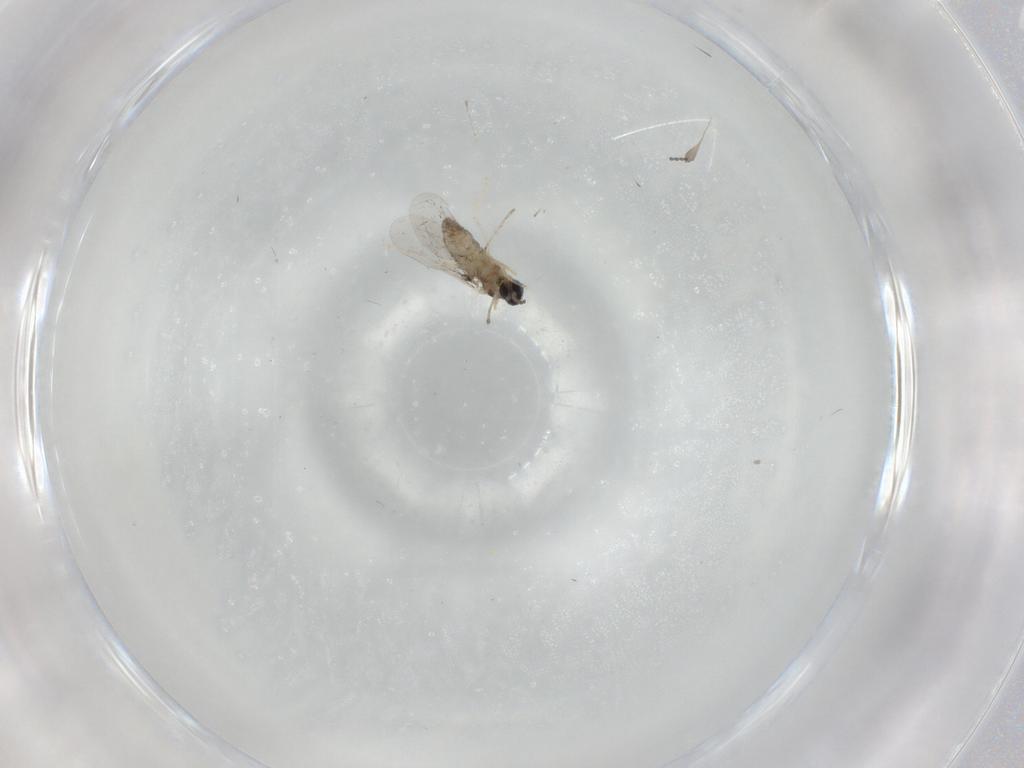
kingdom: Animalia
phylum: Arthropoda
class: Insecta
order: Diptera
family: Cecidomyiidae
